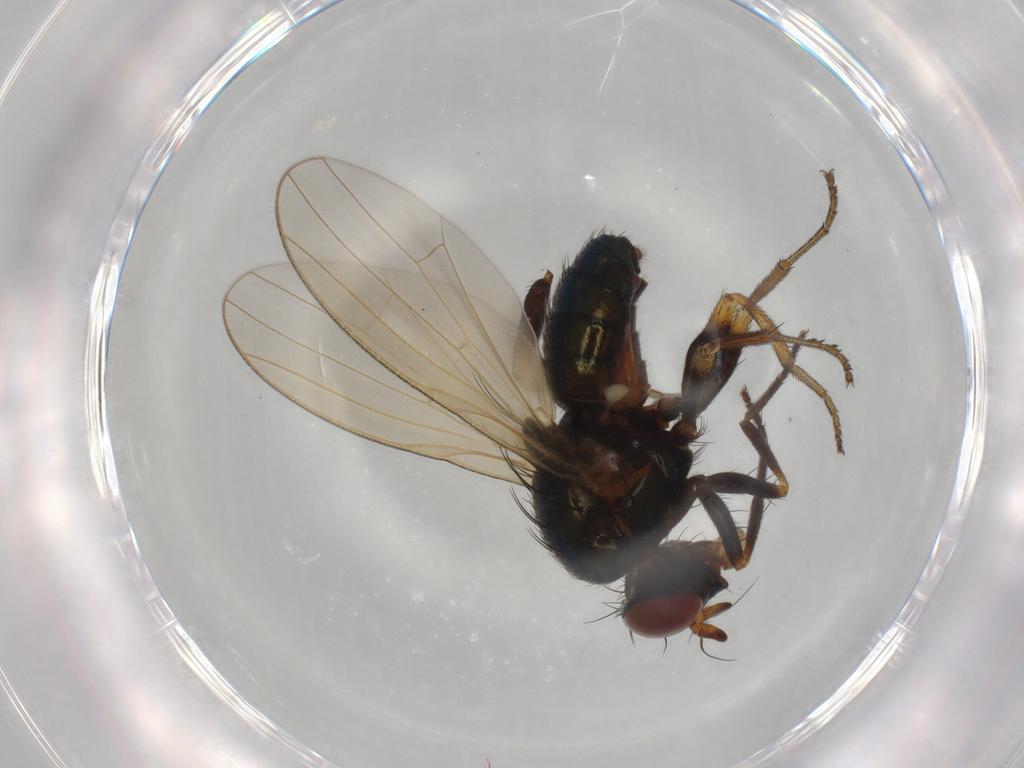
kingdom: Animalia
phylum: Arthropoda
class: Insecta
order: Diptera
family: Lauxaniidae
